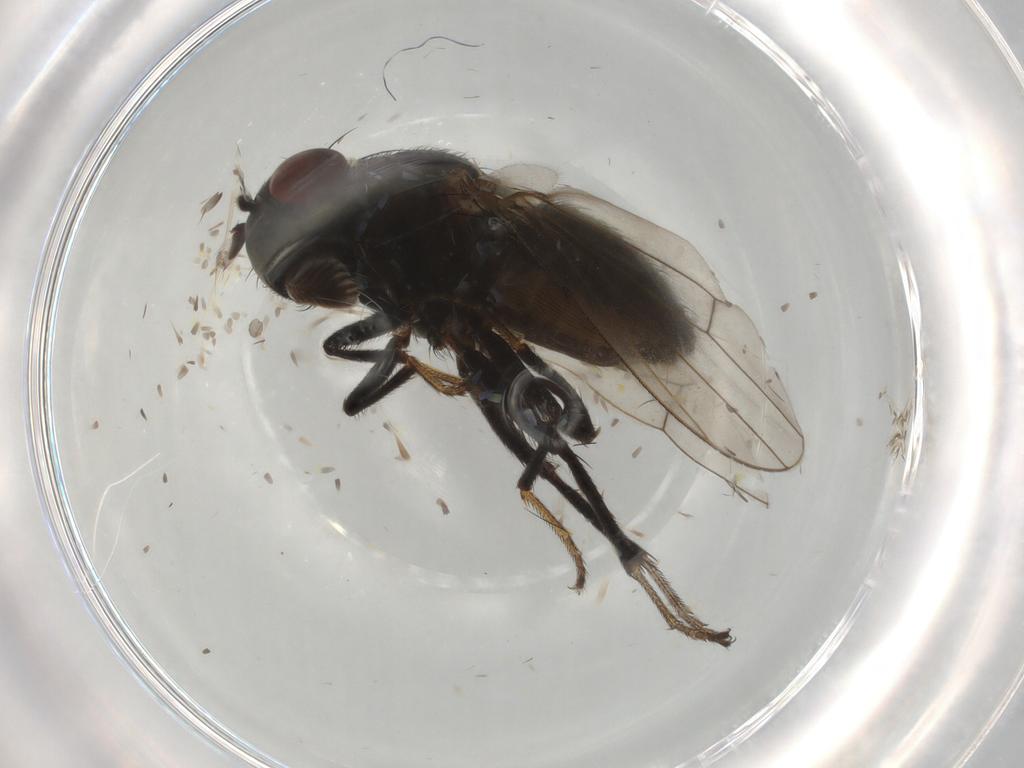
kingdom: Animalia
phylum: Arthropoda
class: Insecta
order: Diptera
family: Ephydridae
